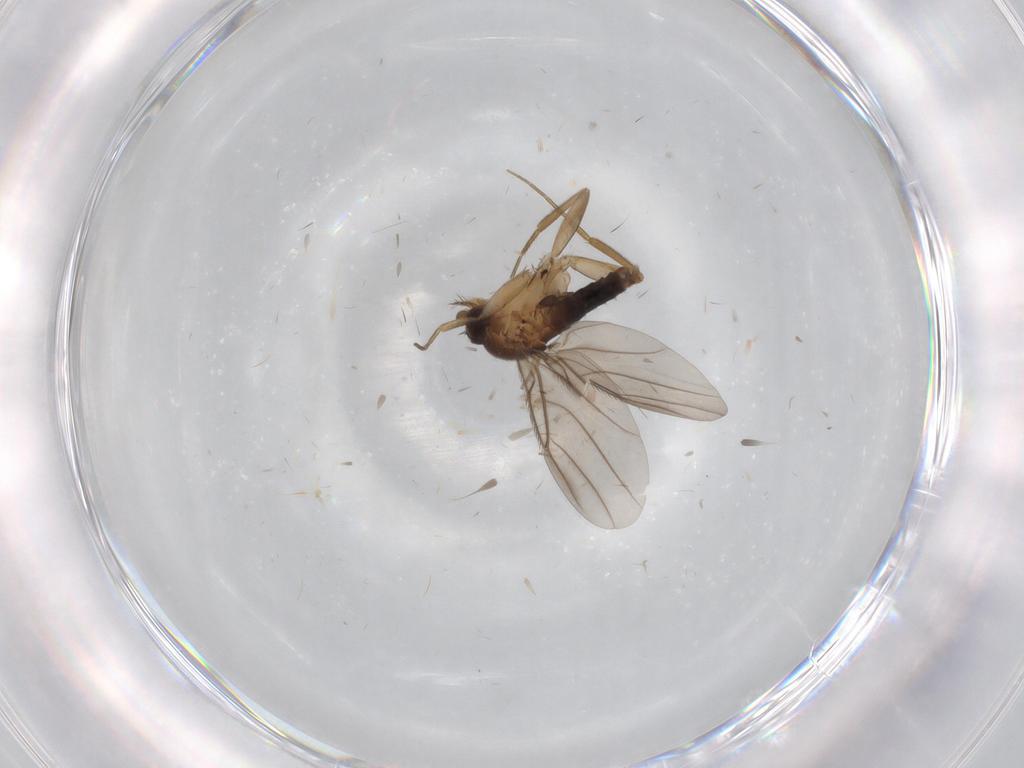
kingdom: Animalia
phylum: Arthropoda
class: Insecta
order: Diptera
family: Phoridae
